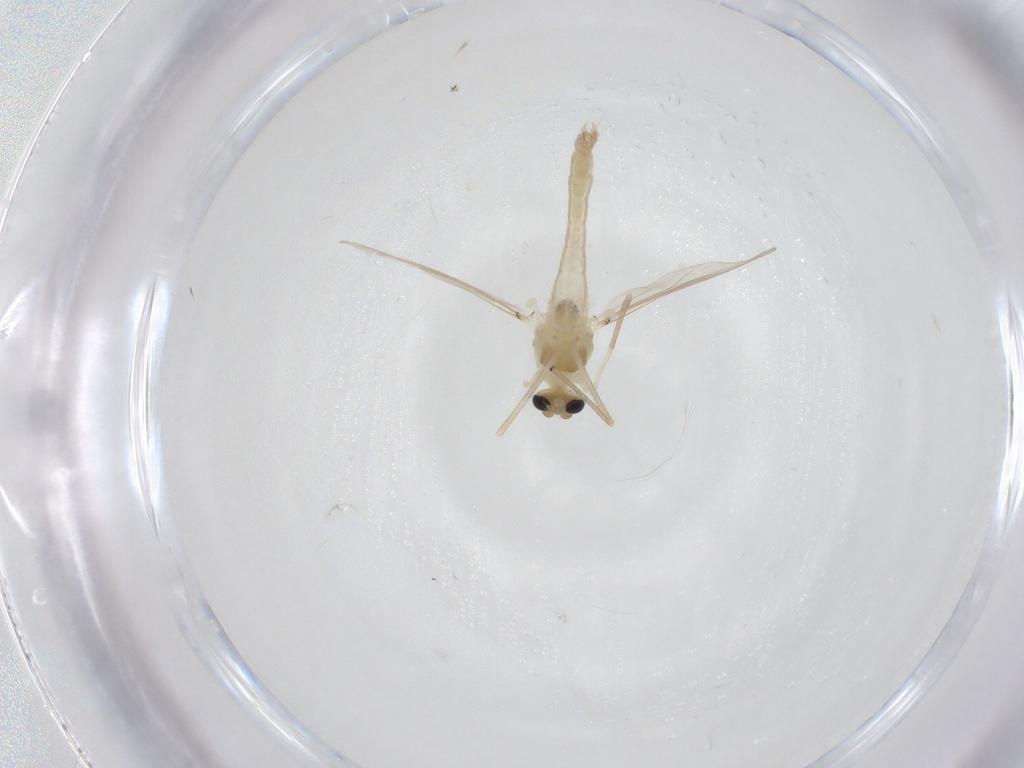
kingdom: Animalia
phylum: Arthropoda
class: Insecta
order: Diptera
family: Chironomidae
